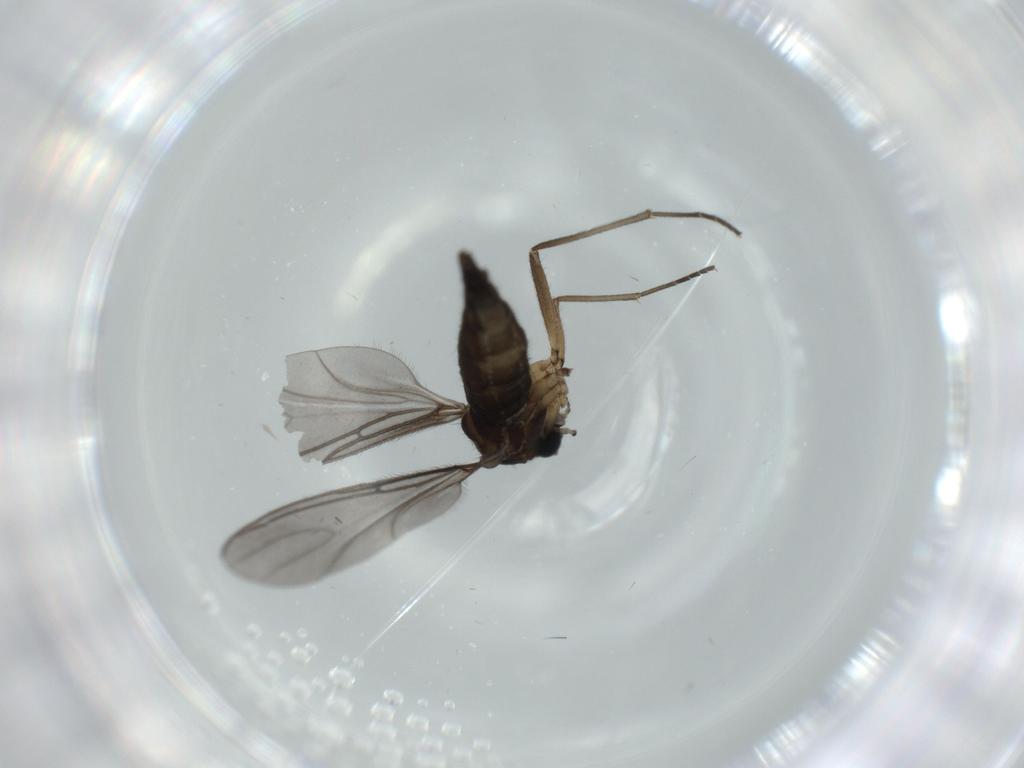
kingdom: Animalia
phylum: Arthropoda
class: Insecta
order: Diptera
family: Sciaridae
